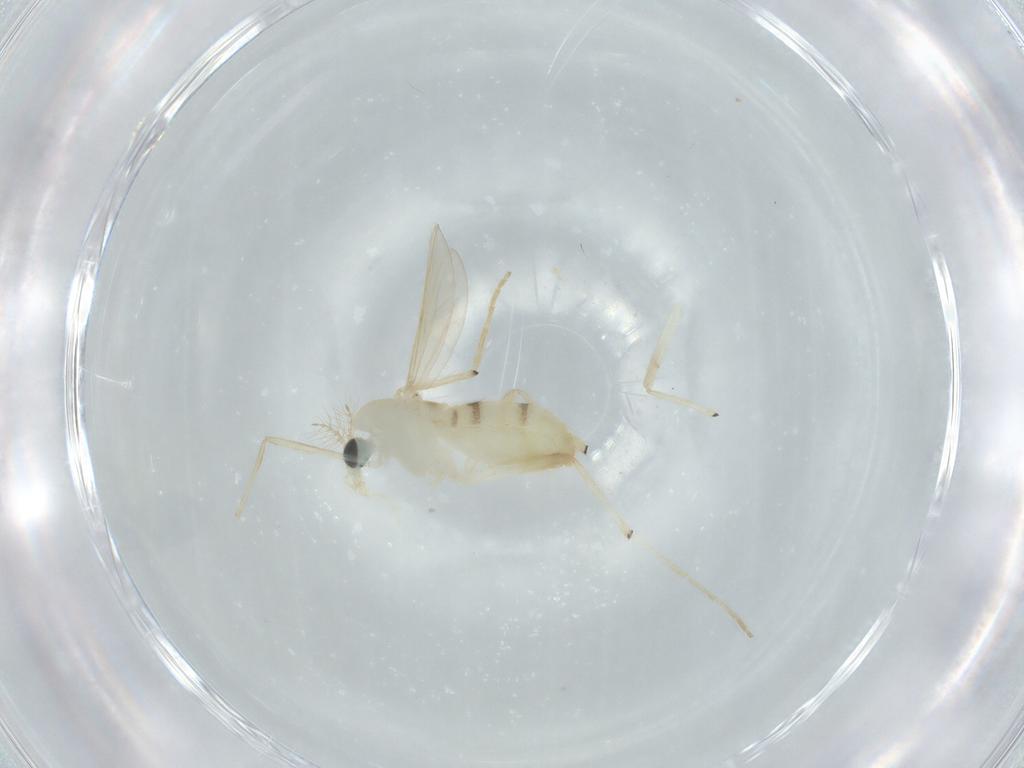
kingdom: Animalia
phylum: Arthropoda
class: Insecta
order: Diptera
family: Chironomidae
